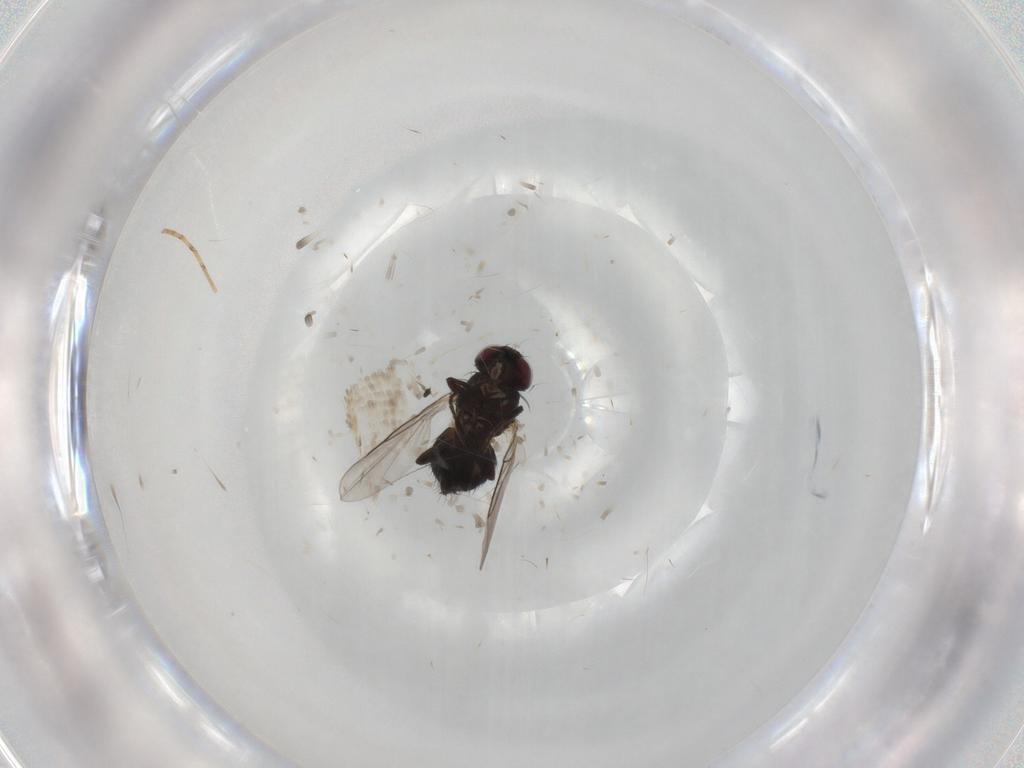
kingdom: Animalia
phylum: Arthropoda
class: Insecta
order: Diptera
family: Agromyzidae
